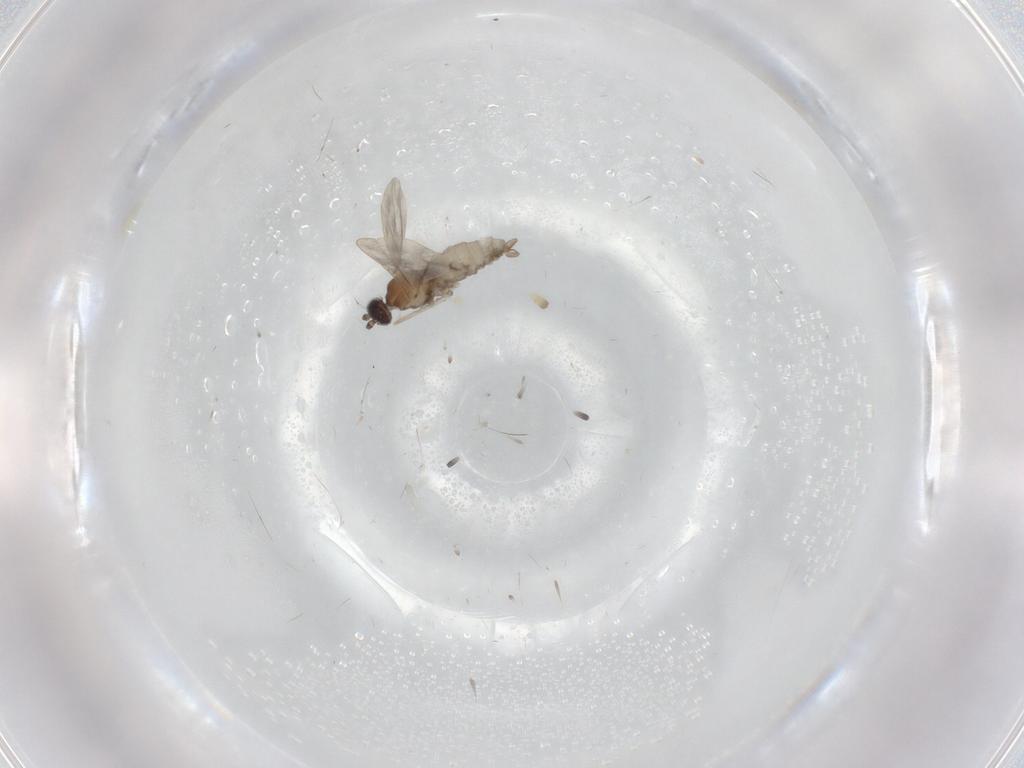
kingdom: Animalia
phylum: Arthropoda
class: Insecta
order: Diptera
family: Cecidomyiidae
